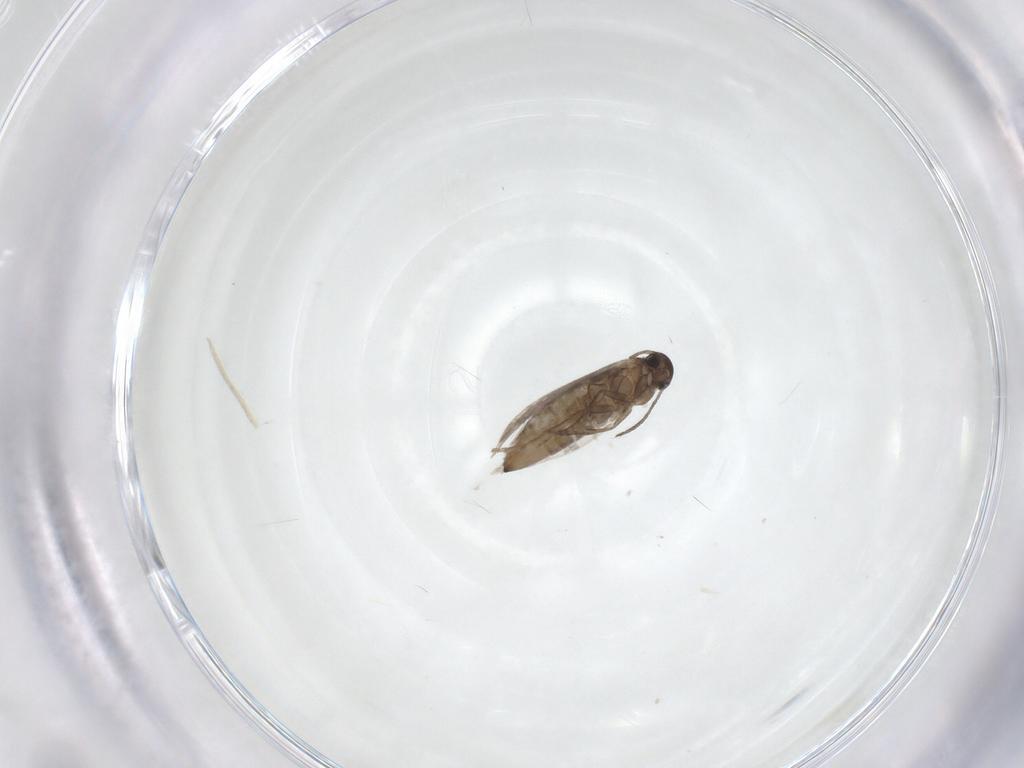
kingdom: Animalia
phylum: Arthropoda
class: Insecta
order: Lepidoptera
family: Heliozelidae
